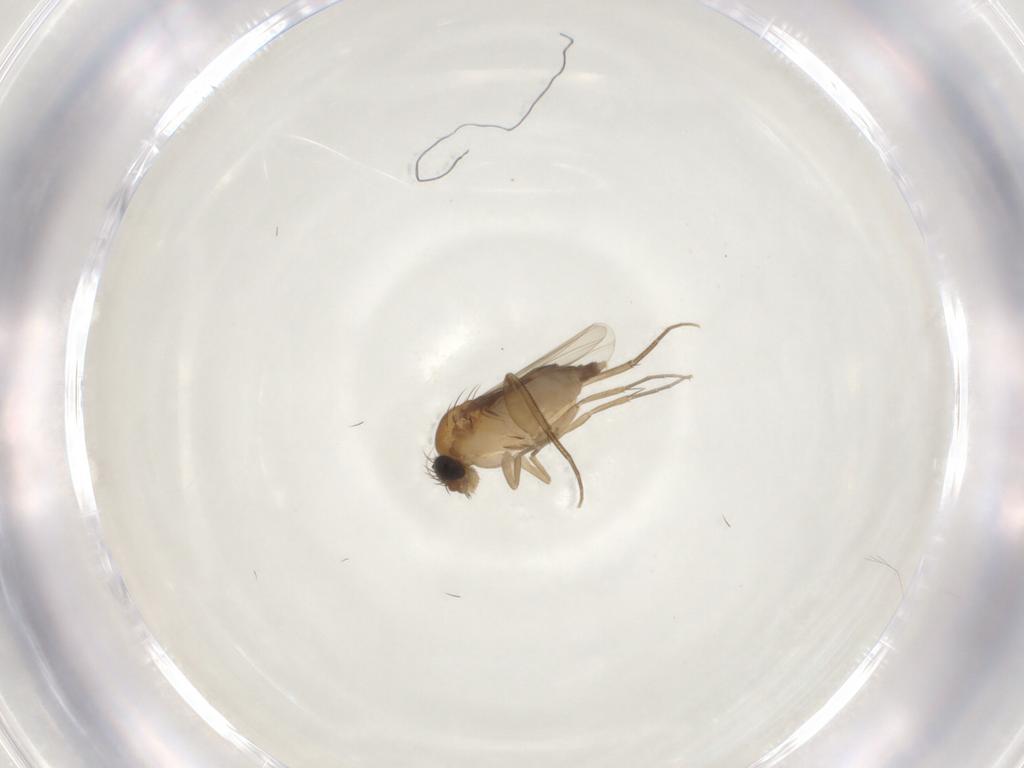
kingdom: Animalia
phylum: Arthropoda
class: Insecta
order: Diptera
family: Phoridae
